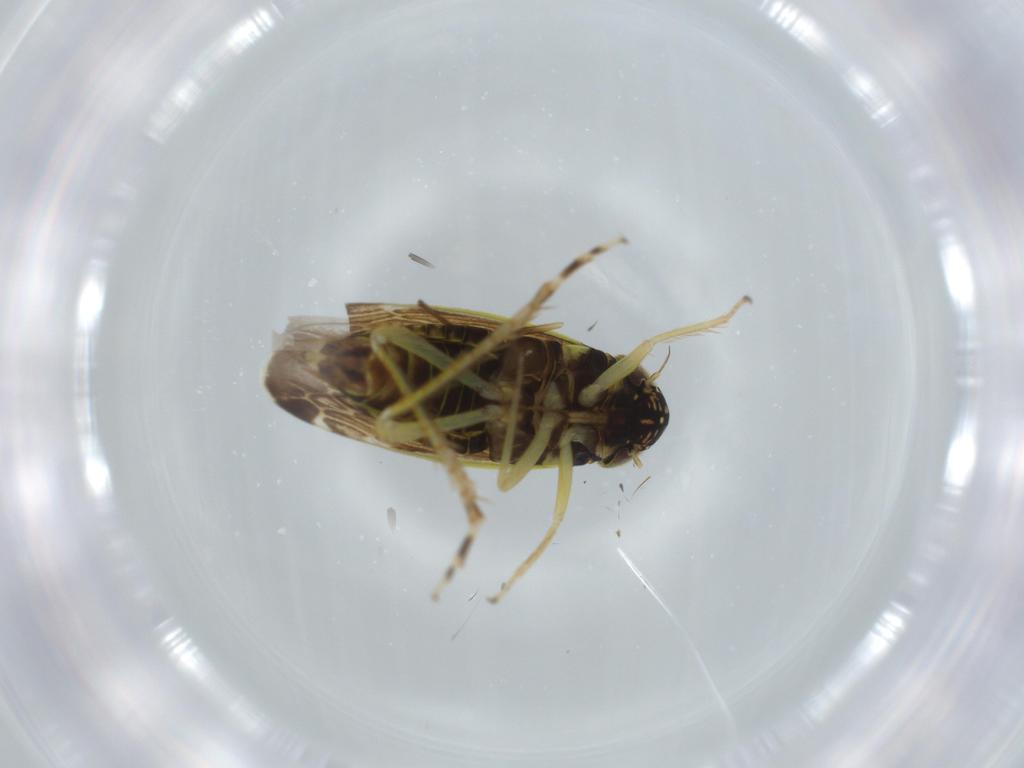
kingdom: Animalia
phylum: Arthropoda
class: Insecta
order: Hemiptera
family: Cicadellidae
